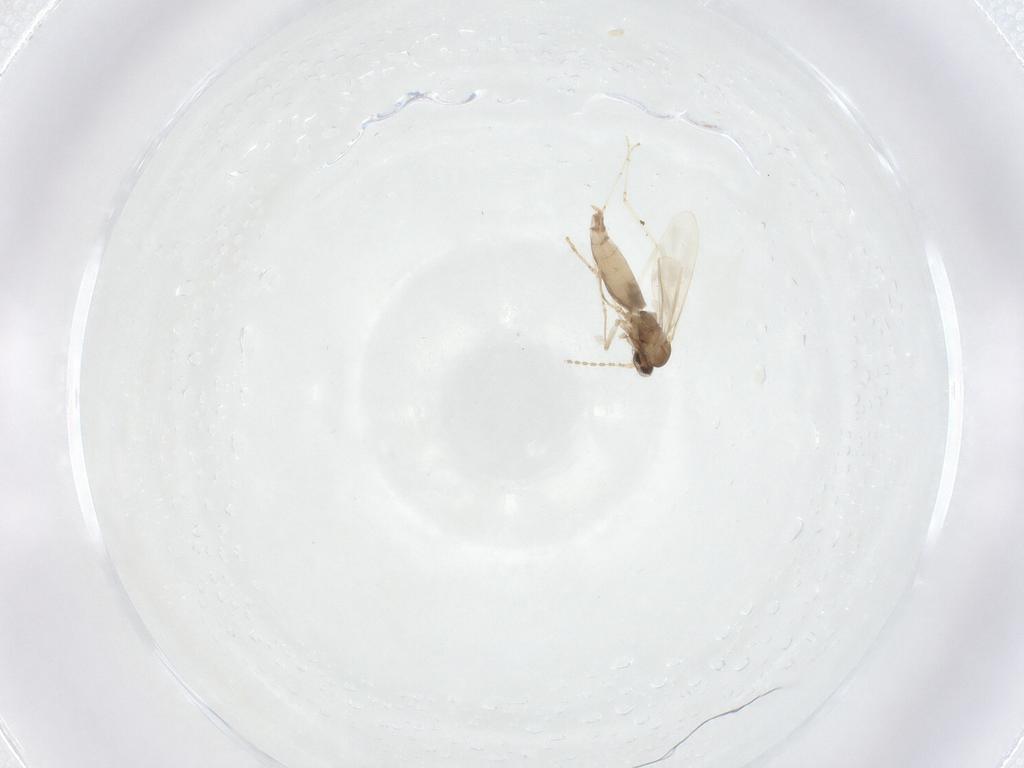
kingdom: Animalia
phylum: Arthropoda
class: Insecta
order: Diptera
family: Cecidomyiidae
